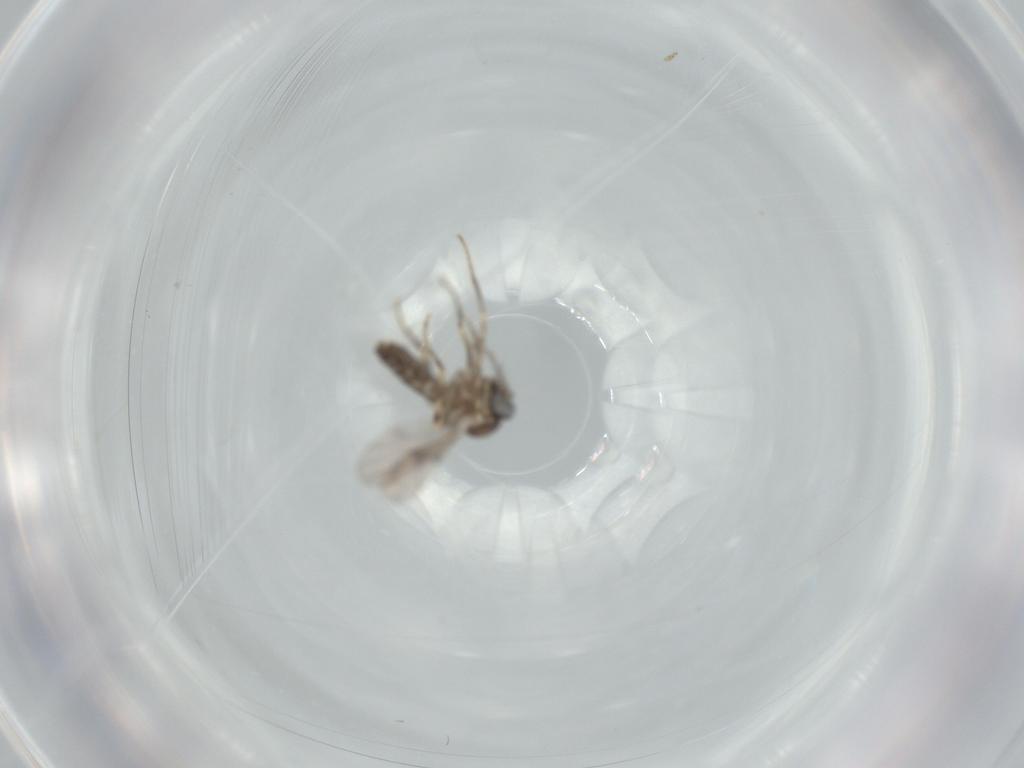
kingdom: Animalia
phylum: Arthropoda
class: Insecta
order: Diptera
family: Ceratopogonidae
